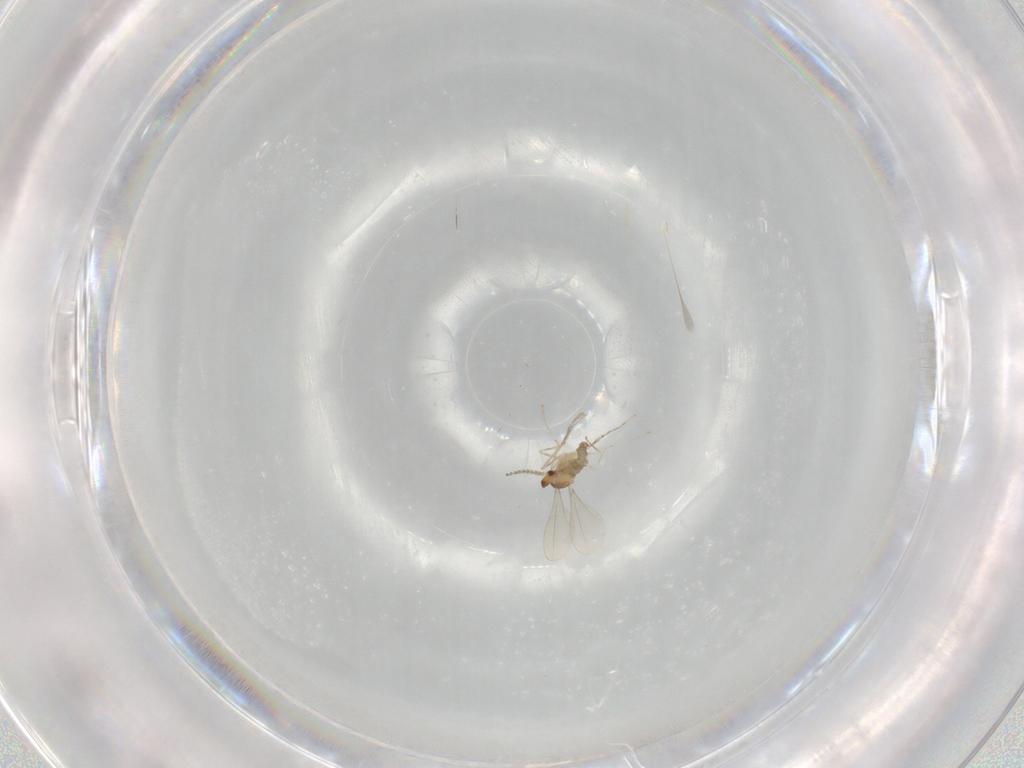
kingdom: Animalia
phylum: Arthropoda
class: Insecta
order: Diptera
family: Cecidomyiidae
